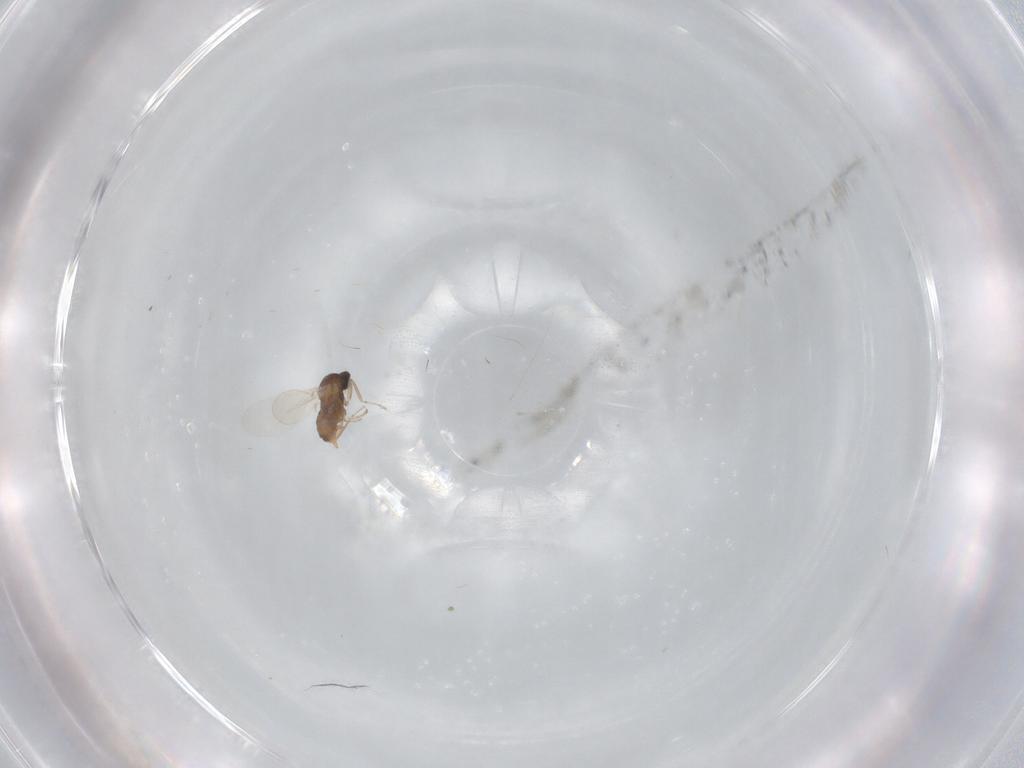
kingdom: Animalia
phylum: Arthropoda
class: Insecta
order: Diptera
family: Cecidomyiidae
